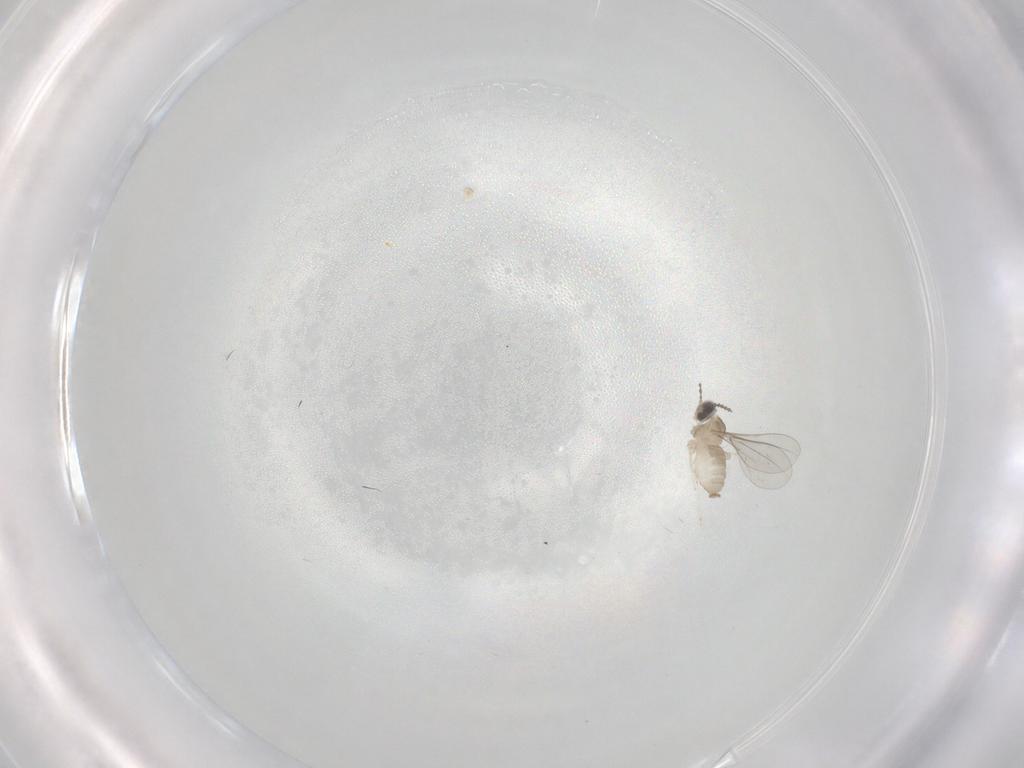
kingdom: Animalia
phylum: Arthropoda
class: Insecta
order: Diptera
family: Cecidomyiidae
